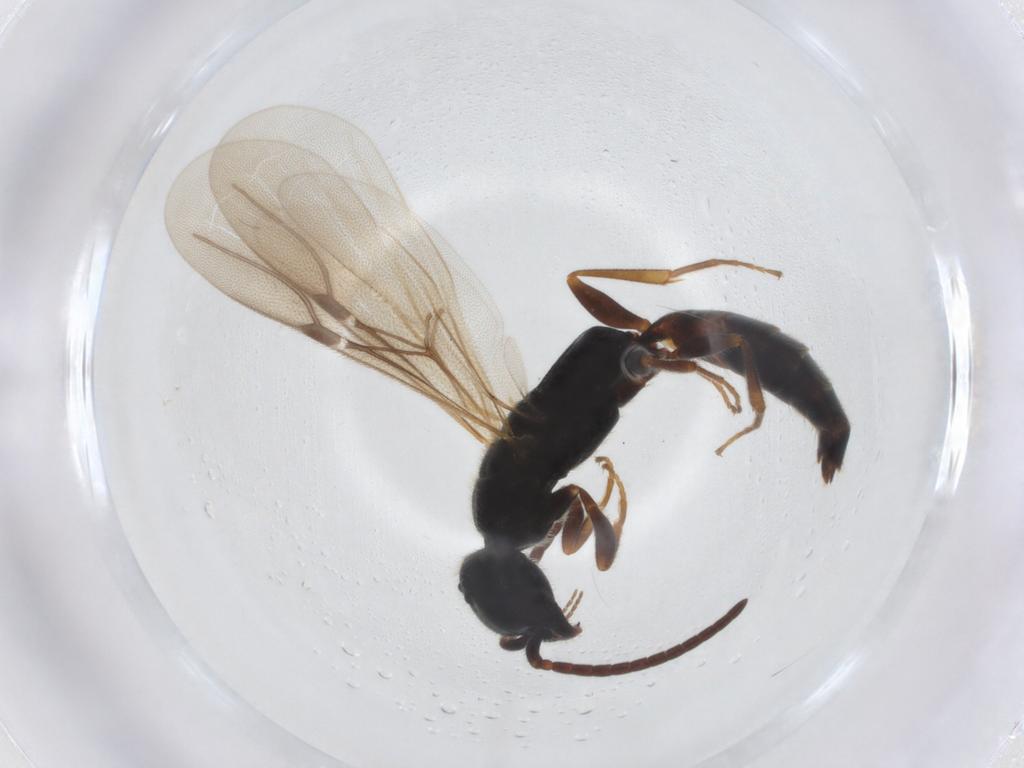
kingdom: Animalia
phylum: Arthropoda
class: Insecta
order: Hymenoptera
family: Bethylidae
